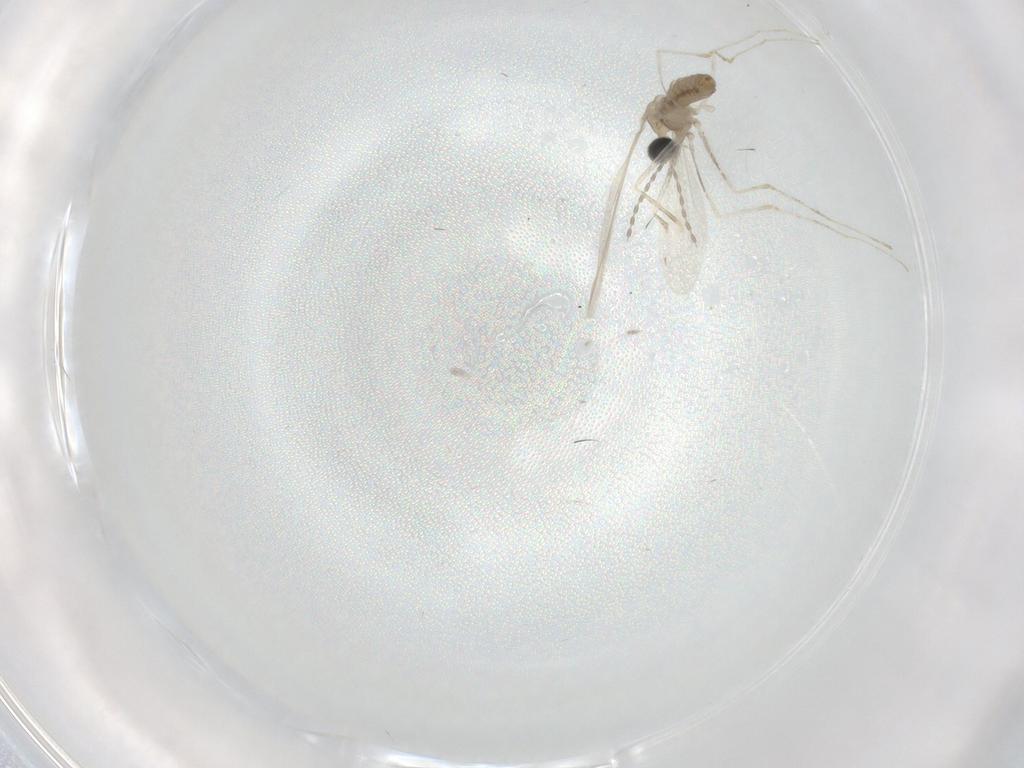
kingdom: Animalia
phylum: Arthropoda
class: Insecta
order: Diptera
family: Cecidomyiidae
